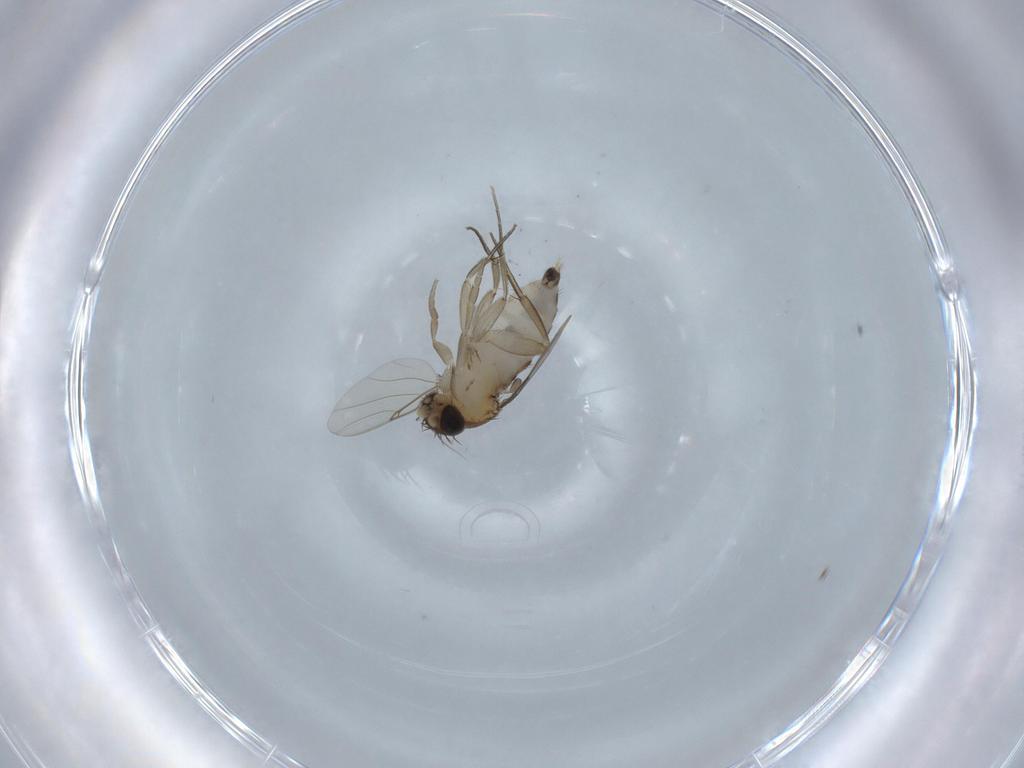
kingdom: Animalia
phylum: Arthropoda
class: Insecta
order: Diptera
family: Phoridae
